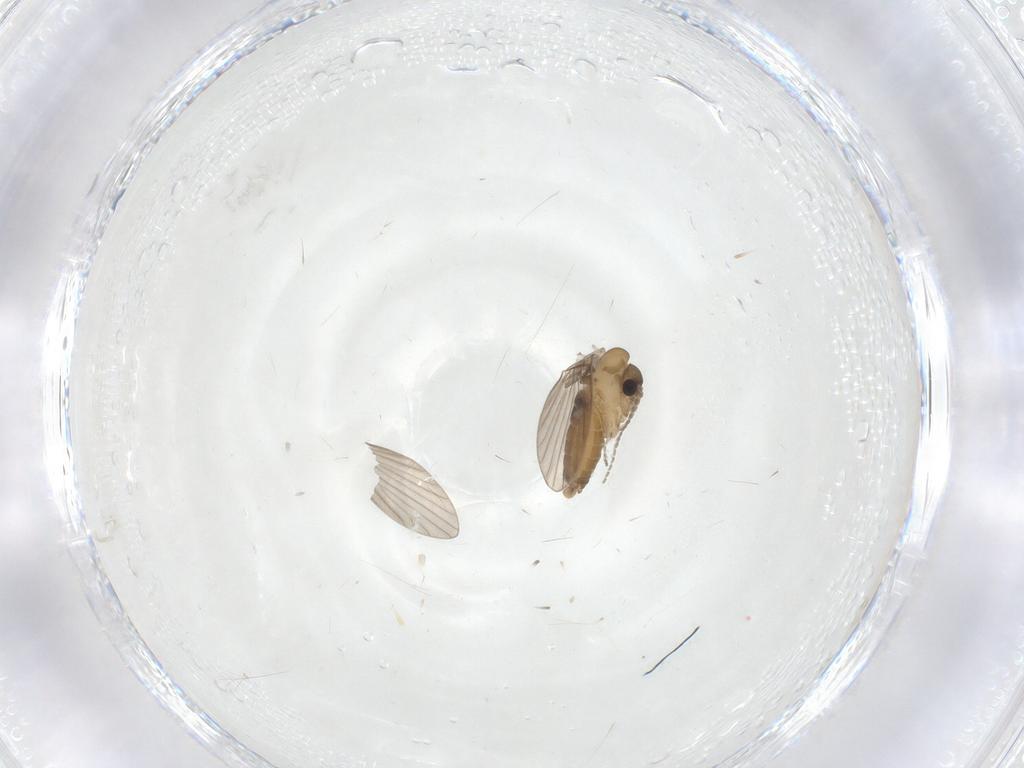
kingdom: Animalia
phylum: Arthropoda
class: Insecta
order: Diptera
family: Cecidomyiidae
